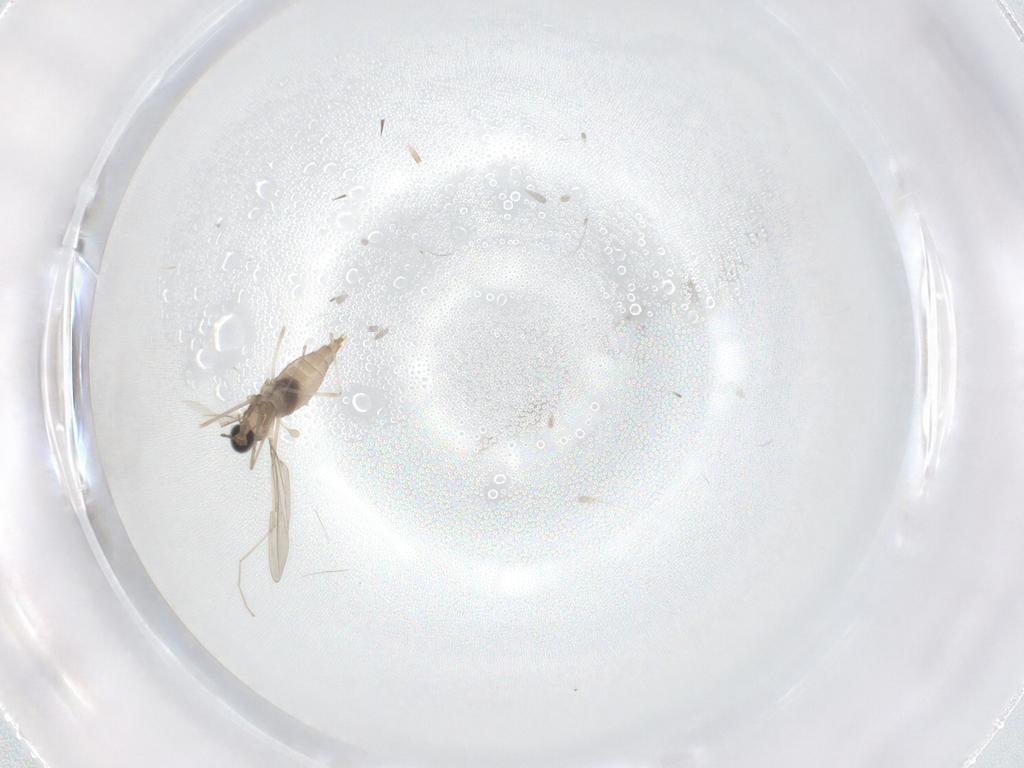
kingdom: Animalia
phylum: Arthropoda
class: Insecta
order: Diptera
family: Cecidomyiidae
